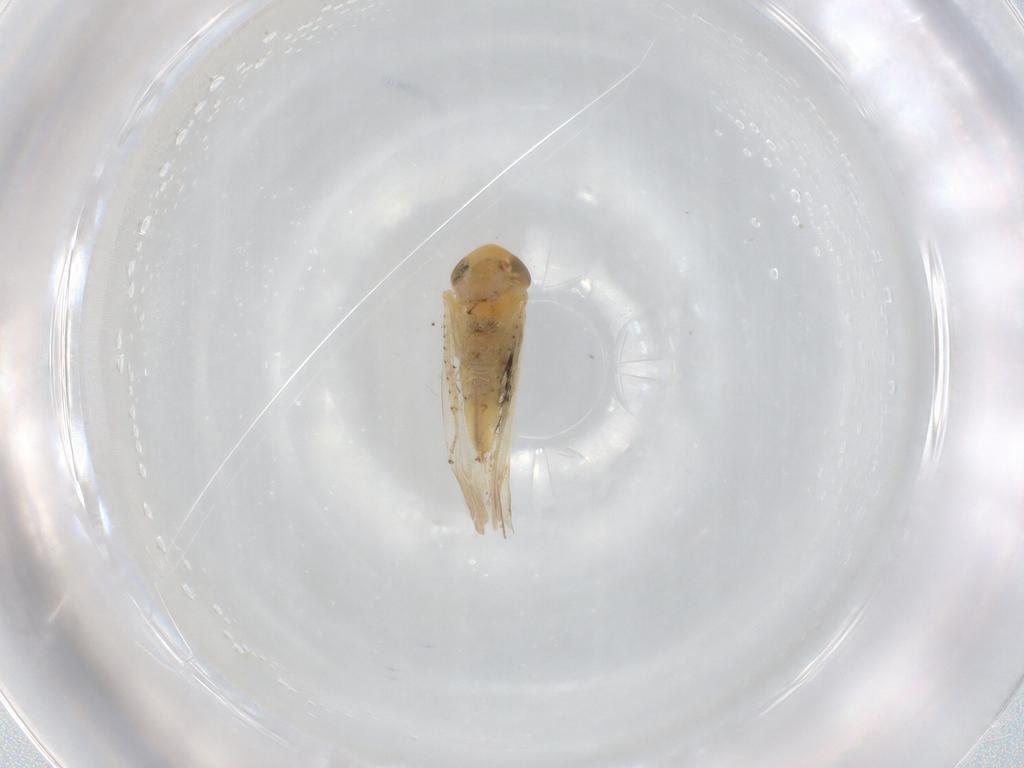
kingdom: Animalia
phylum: Arthropoda
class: Insecta
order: Hemiptera
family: Cicadellidae
